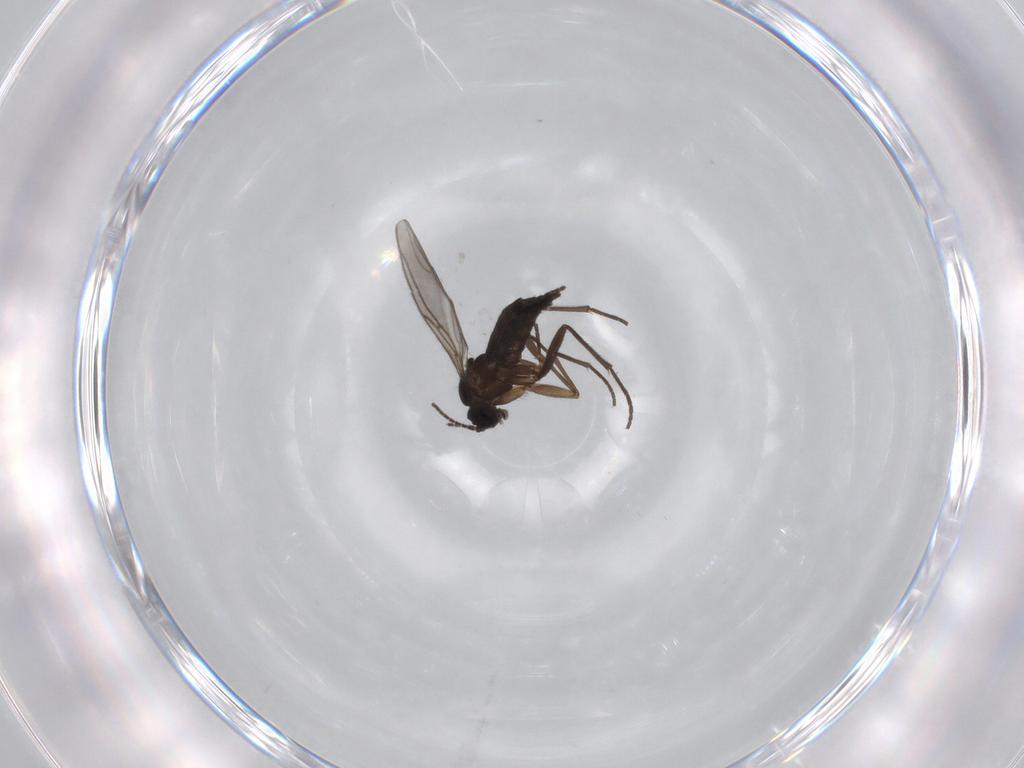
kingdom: Animalia
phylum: Arthropoda
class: Insecta
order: Diptera
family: Sciaridae
